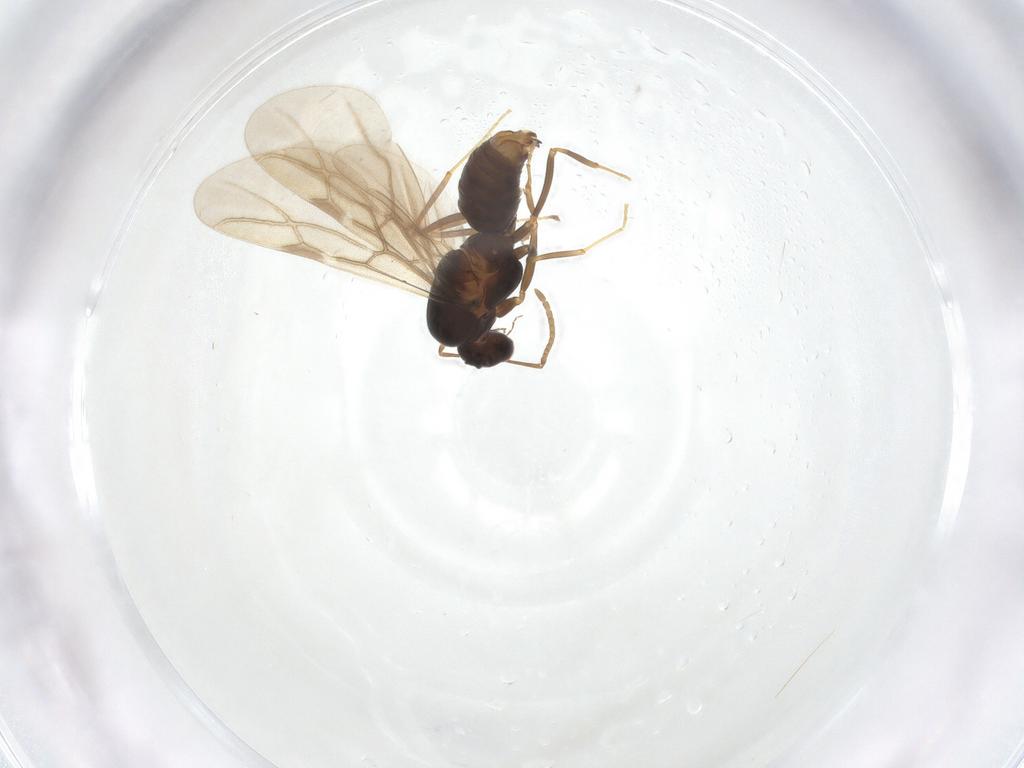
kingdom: Animalia
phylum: Arthropoda
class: Insecta
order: Hymenoptera
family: Formicidae
